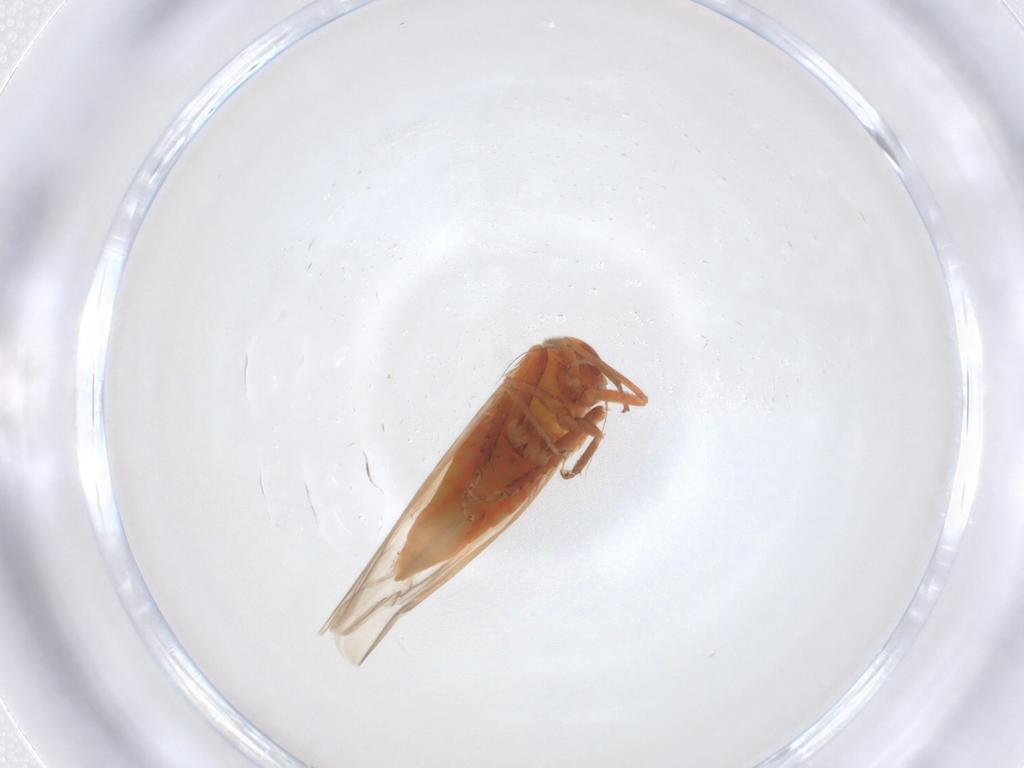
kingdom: Animalia
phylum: Arthropoda
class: Insecta
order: Hemiptera
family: Cicadellidae
